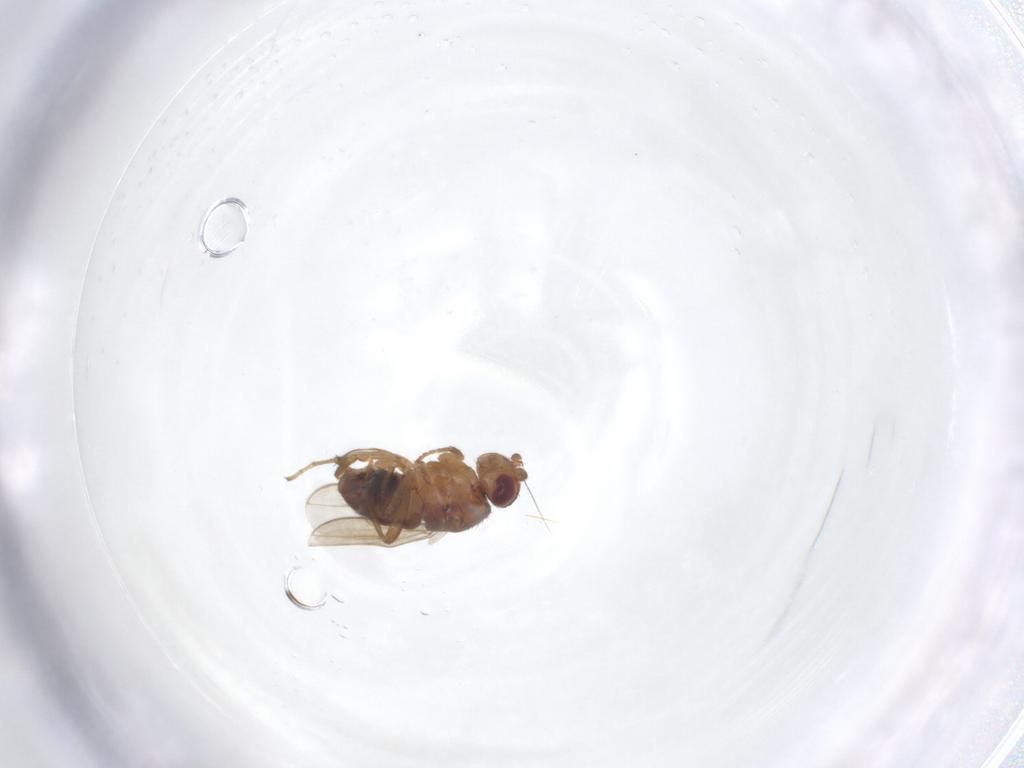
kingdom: Animalia
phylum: Arthropoda
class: Insecta
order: Diptera
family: Sphaeroceridae
